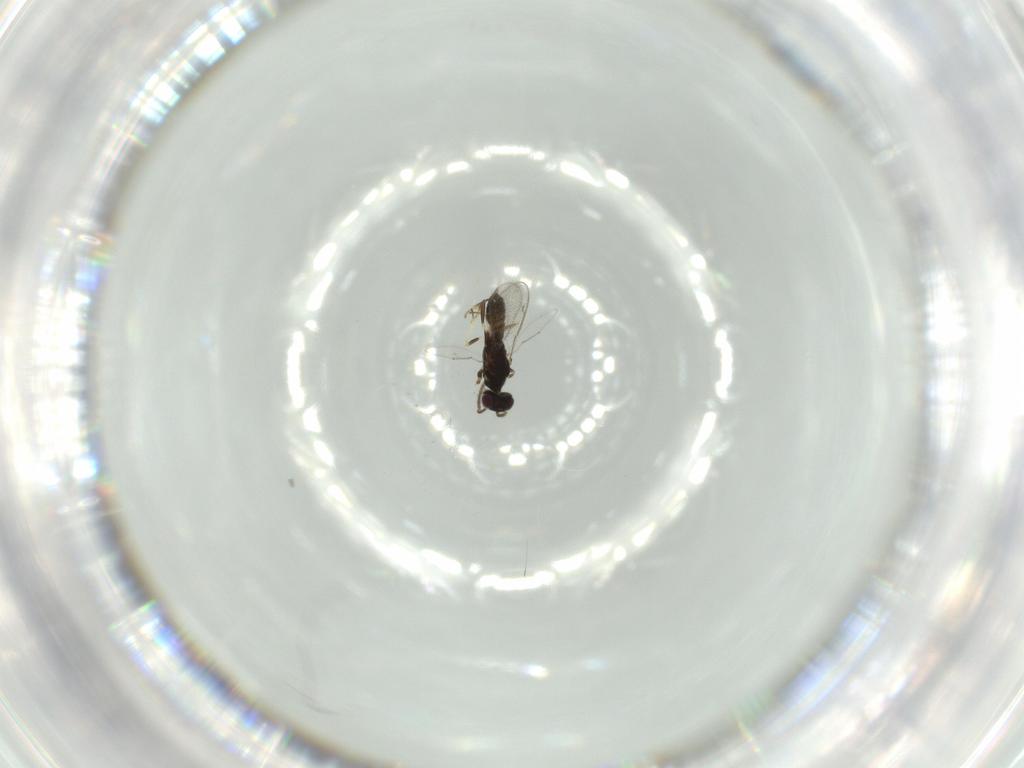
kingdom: Animalia
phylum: Arthropoda
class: Insecta
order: Hymenoptera
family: Eupelmidae
